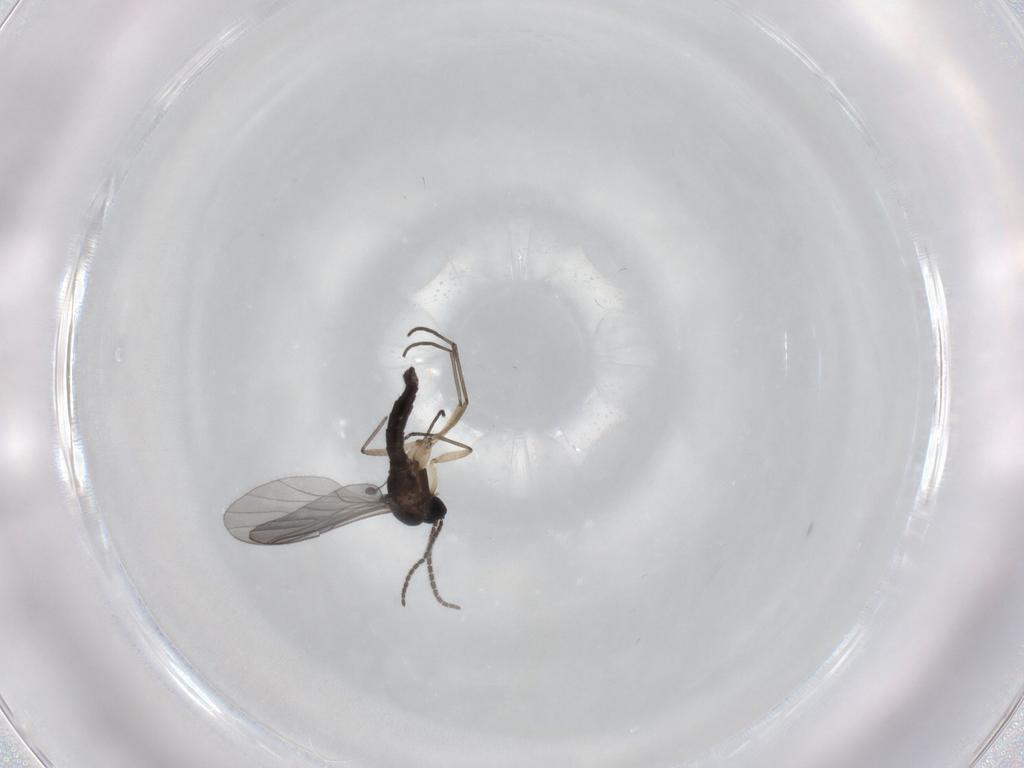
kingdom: Animalia
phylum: Arthropoda
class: Insecta
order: Diptera
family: Sciaridae
